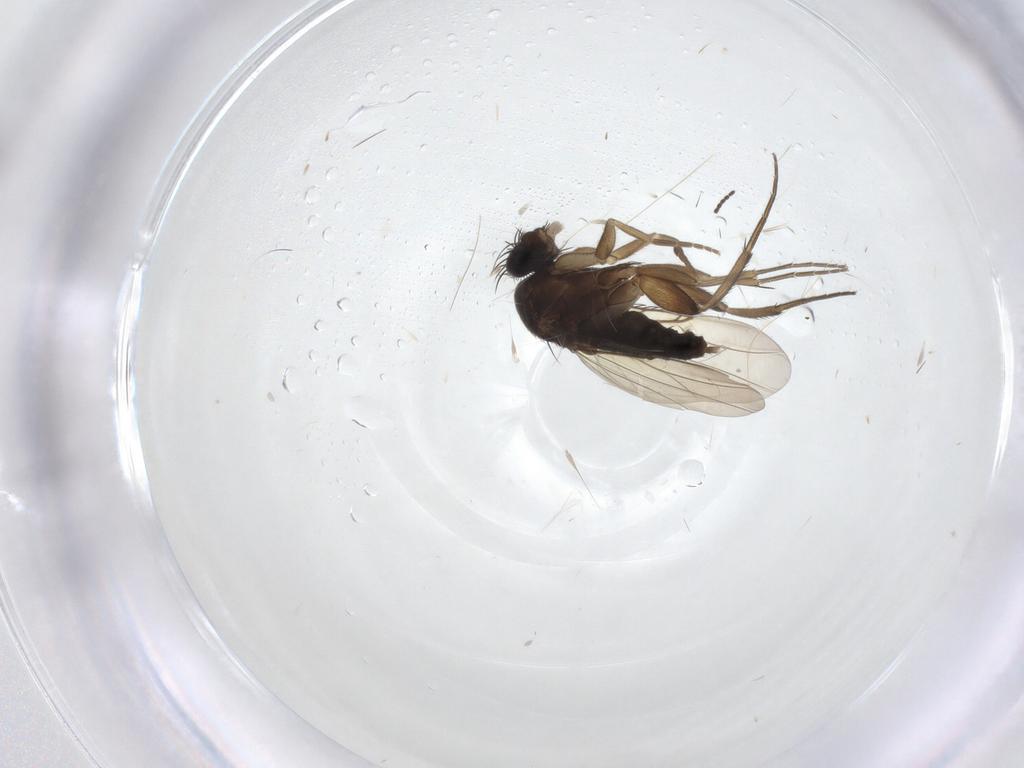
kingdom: Animalia
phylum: Arthropoda
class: Insecta
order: Diptera
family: Phoridae
